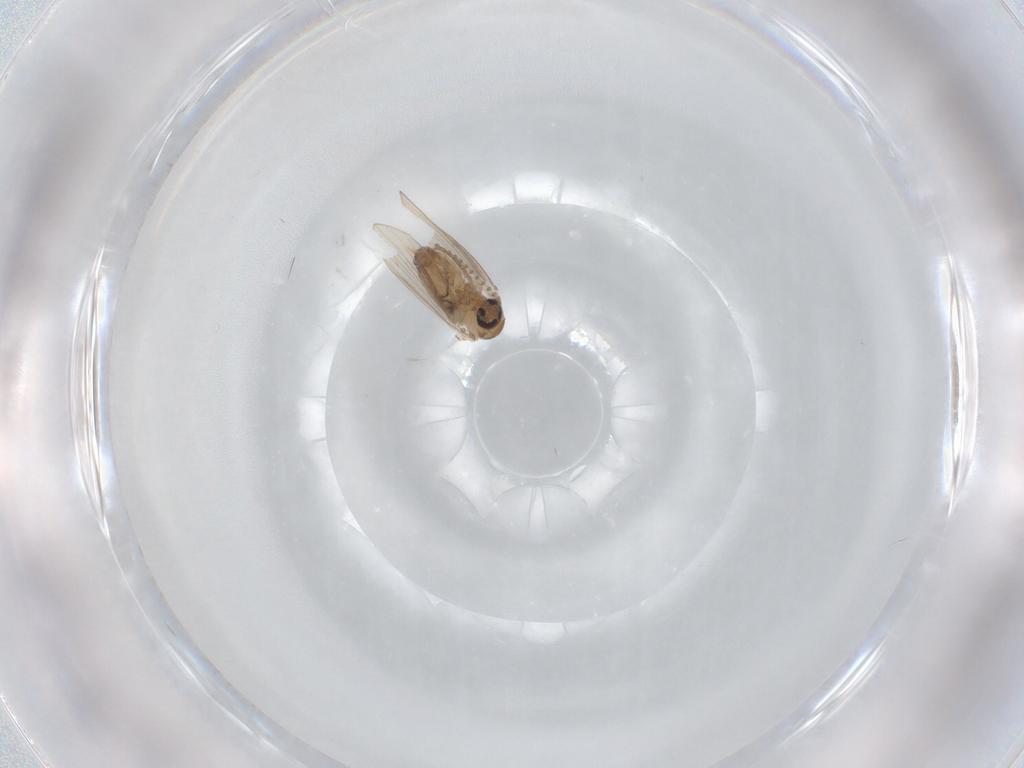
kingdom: Animalia
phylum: Arthropoda
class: Insecta
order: Diptera
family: Psychodidae
